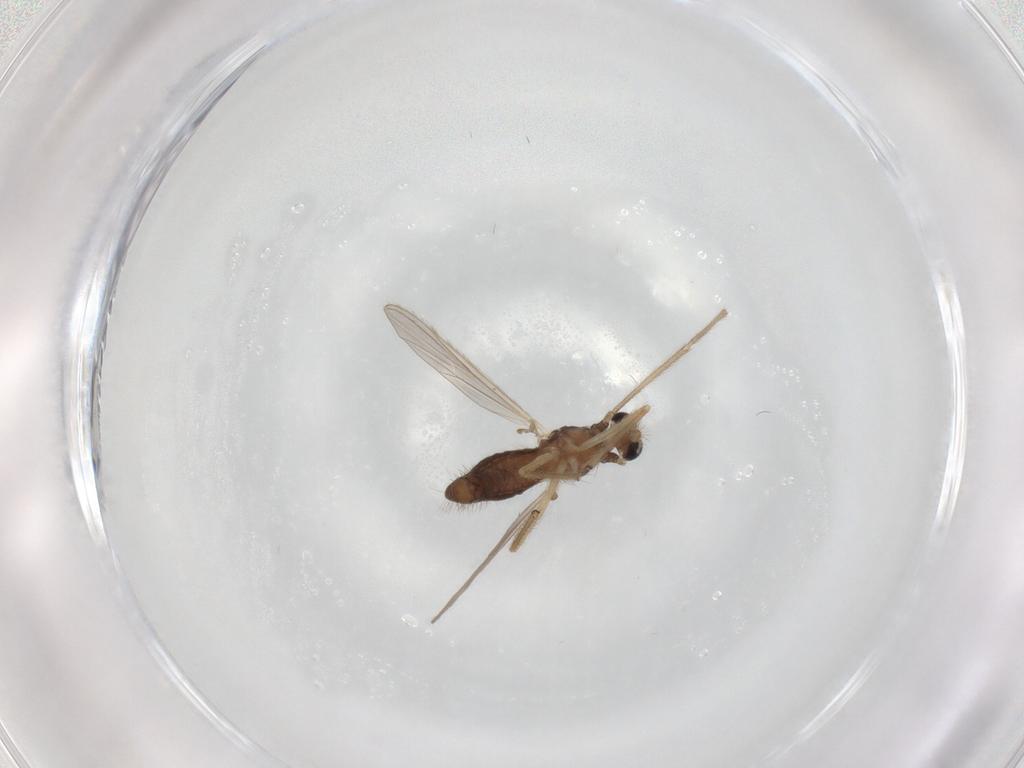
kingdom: Animalia
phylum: Arthropoda
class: Insecta
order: Diptera
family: Chironomidae
